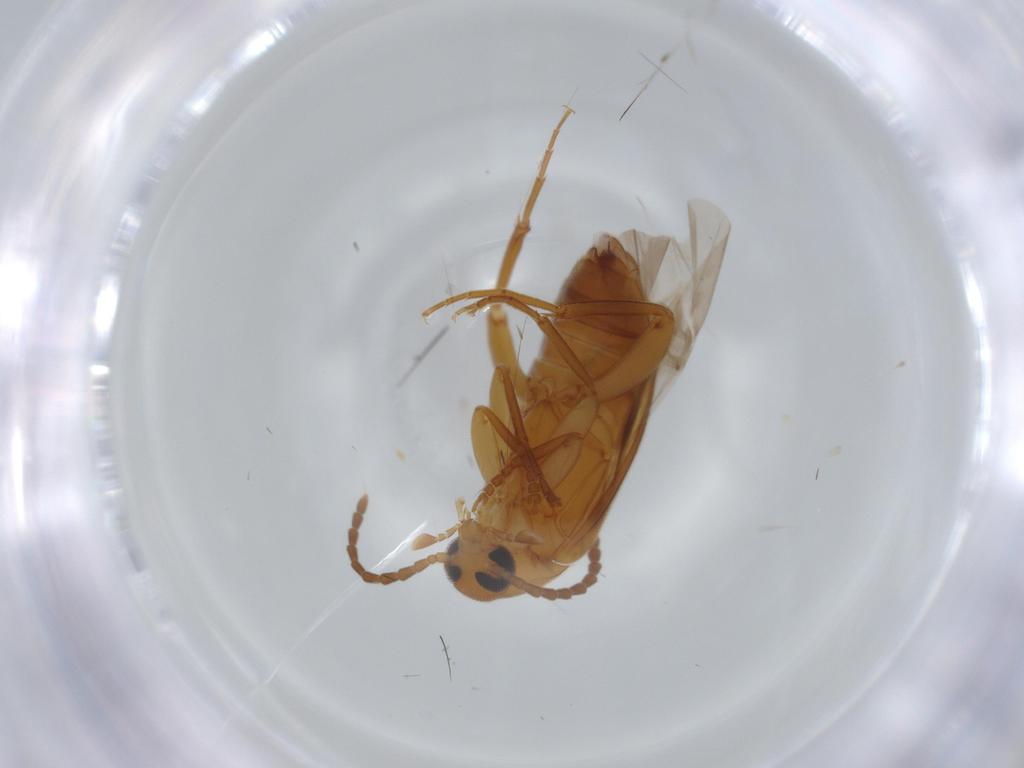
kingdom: Animalia
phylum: Arthropoda
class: Insecta
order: Coleoptera
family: Scraptiidae
